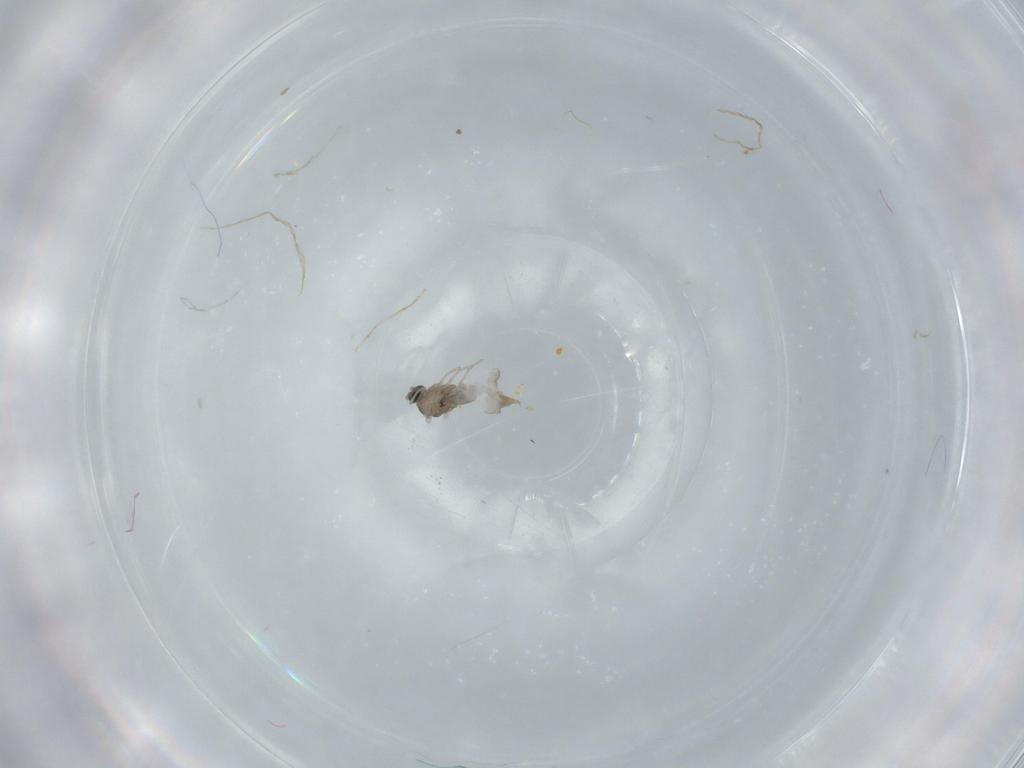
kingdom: Animalia
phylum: Arthropoda
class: Insecta
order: Diptera
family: Cecidomyiidae
